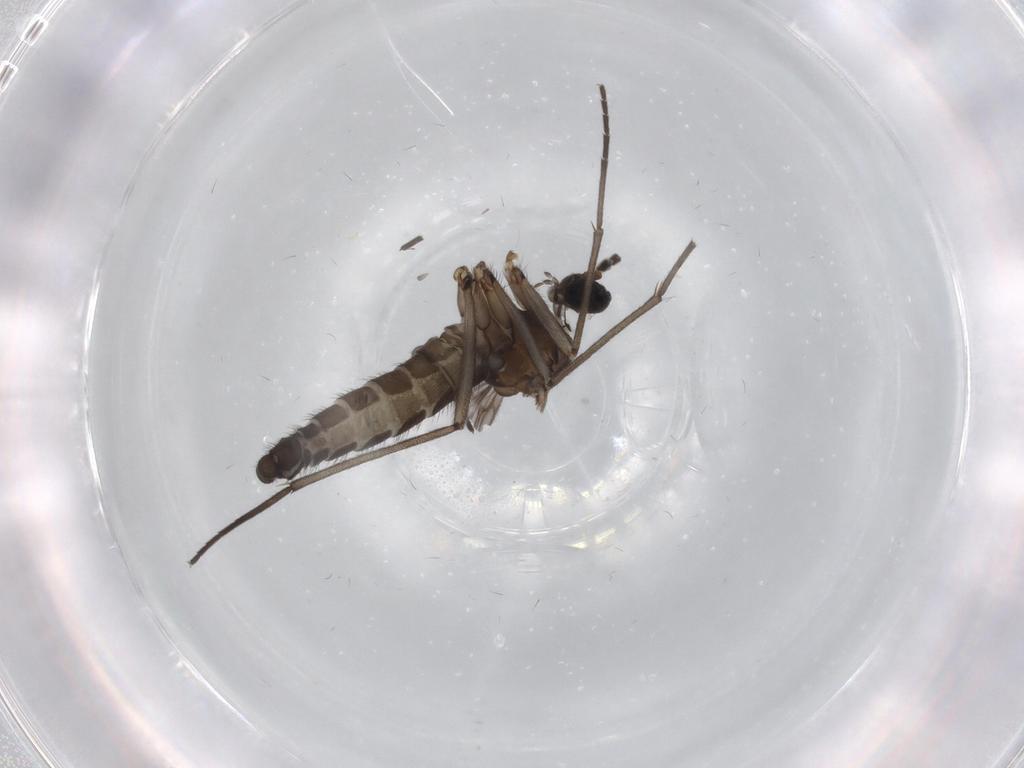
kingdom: Animalia
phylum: Arthropoda
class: Insecta
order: Diptera
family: Sciaridae
